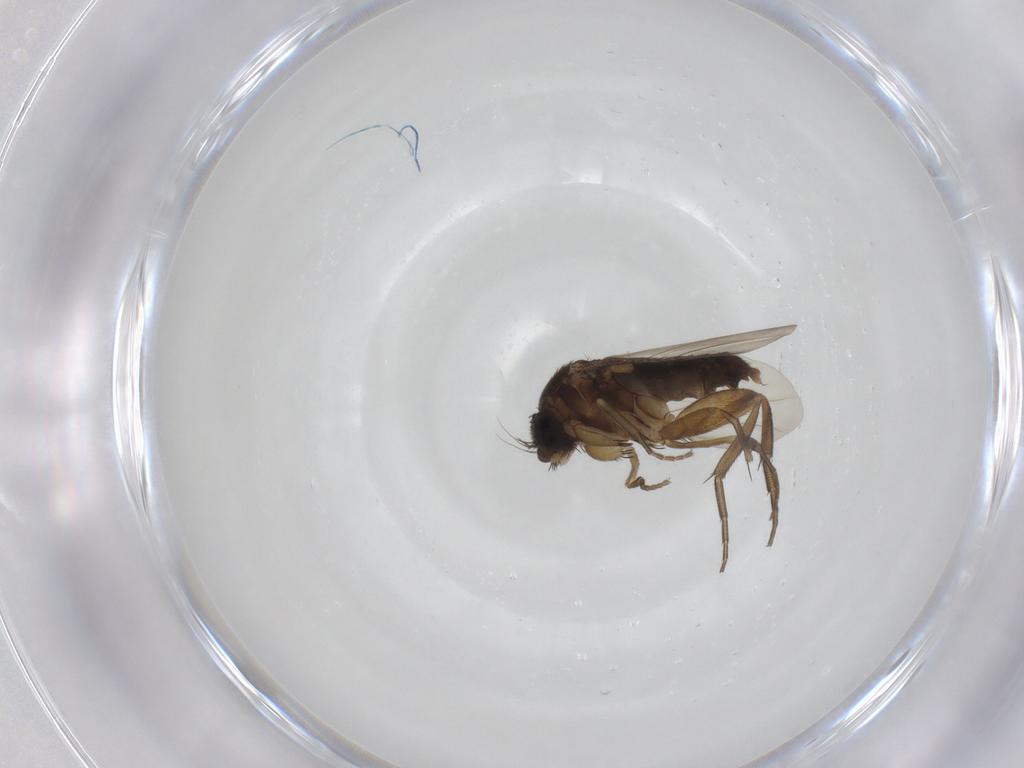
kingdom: Animalia
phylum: Arthropoda
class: Insecta
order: Diptera
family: Phoridae
